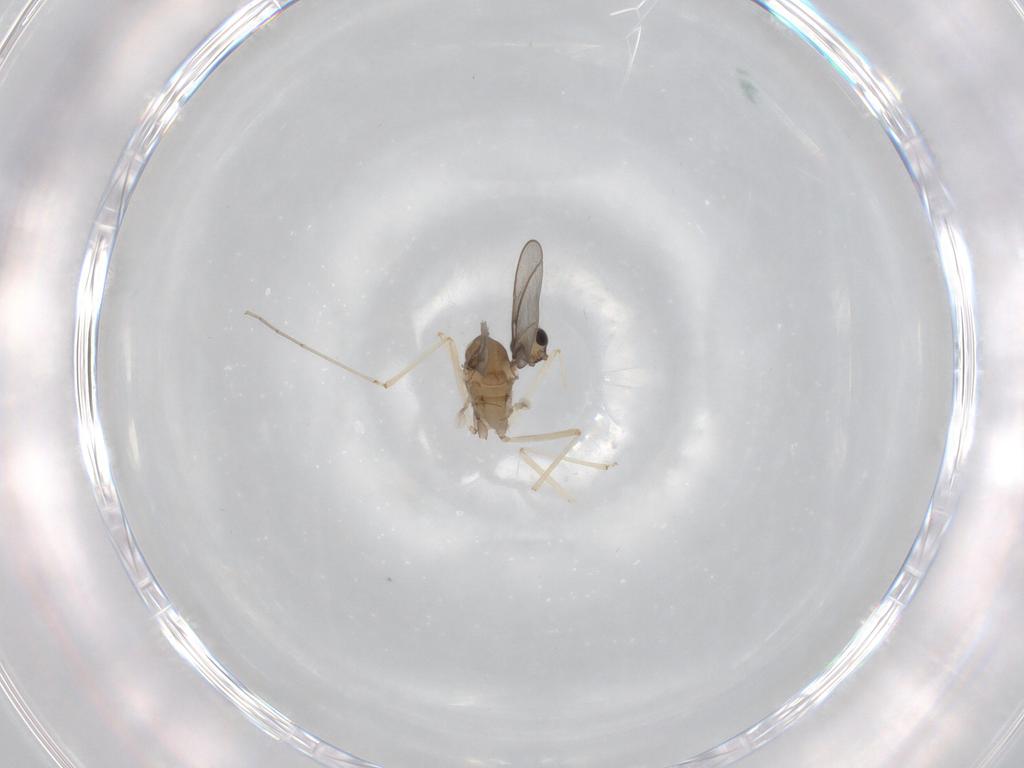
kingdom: Animalia
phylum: Arthropoda
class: Insecta
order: Diptera
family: Cecidomyiidae
